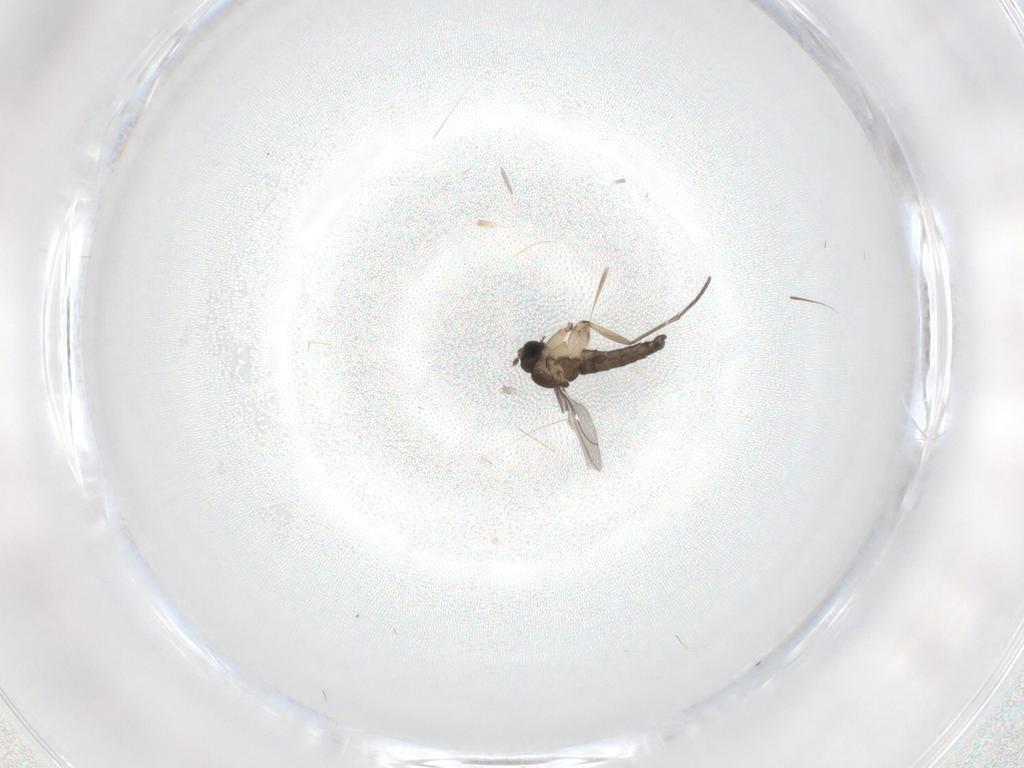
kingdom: Animalia
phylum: Arthropoda
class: Insecta
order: Diptera
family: Sciaridae
